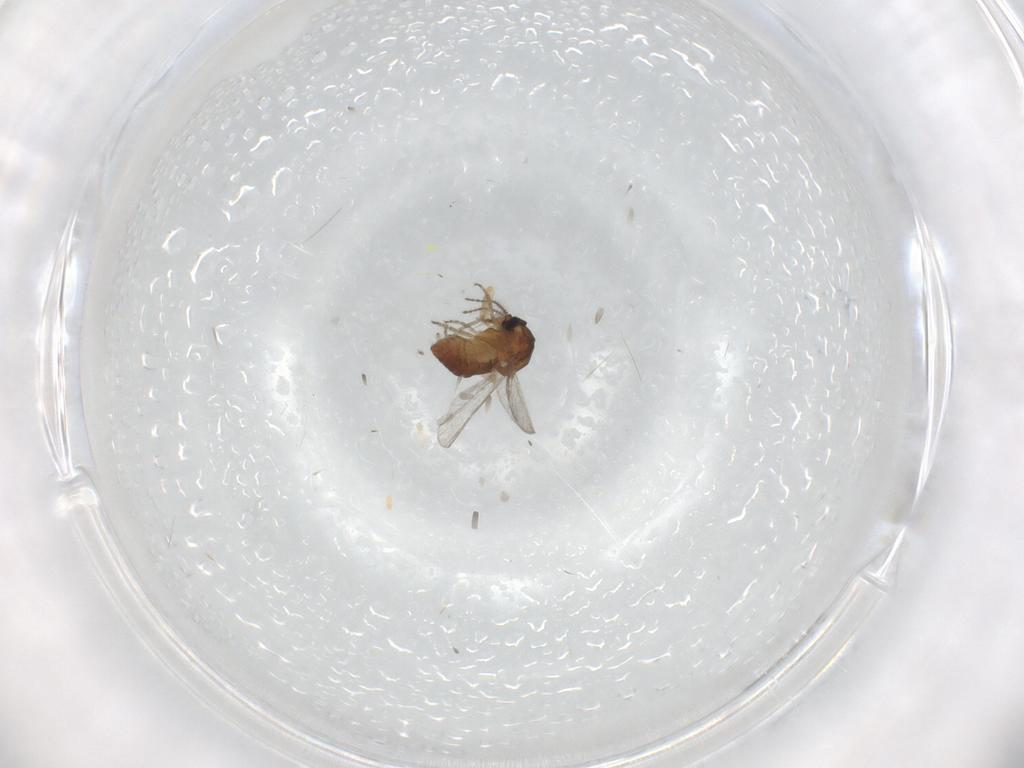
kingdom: Animalia
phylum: Arthropoda
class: Insecta
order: Diptera
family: Ceratopogonidae
